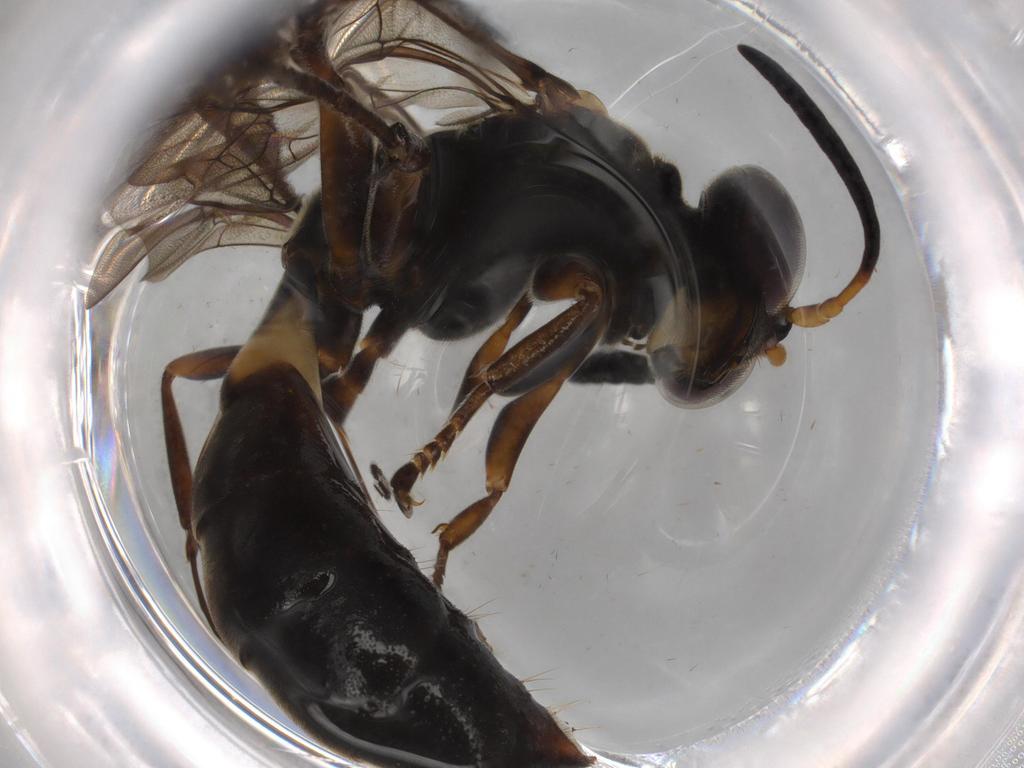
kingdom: Animalia
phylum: Arthropoda
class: Insecta
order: Hymenoptera
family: Crabronidae
